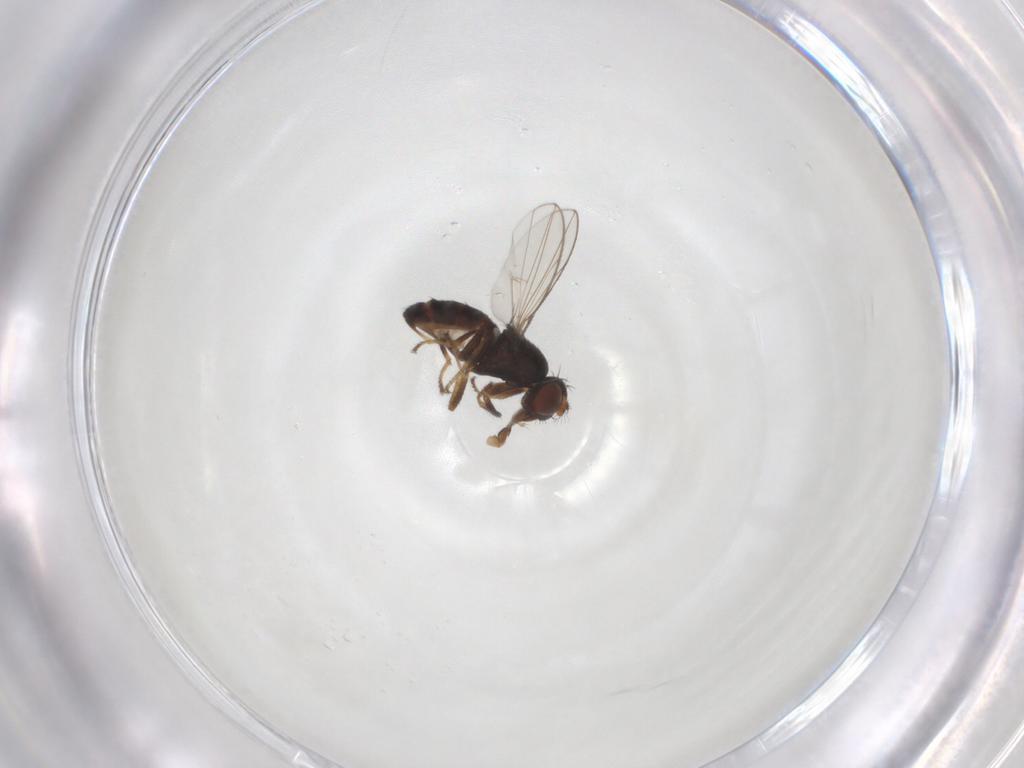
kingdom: Animalia
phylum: Arthropoda
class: Insecta
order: Diptera
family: Ephydridae
